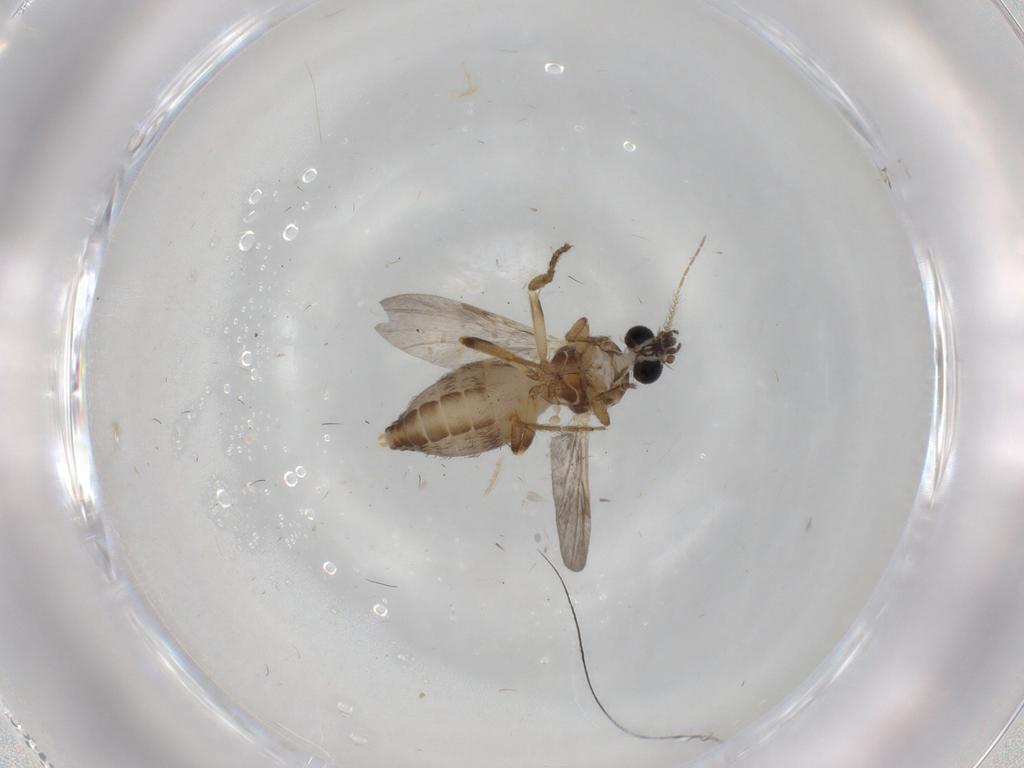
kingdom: Animalia
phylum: Arthropoda
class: Insecta
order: Diptera
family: Ceratopogonidae
